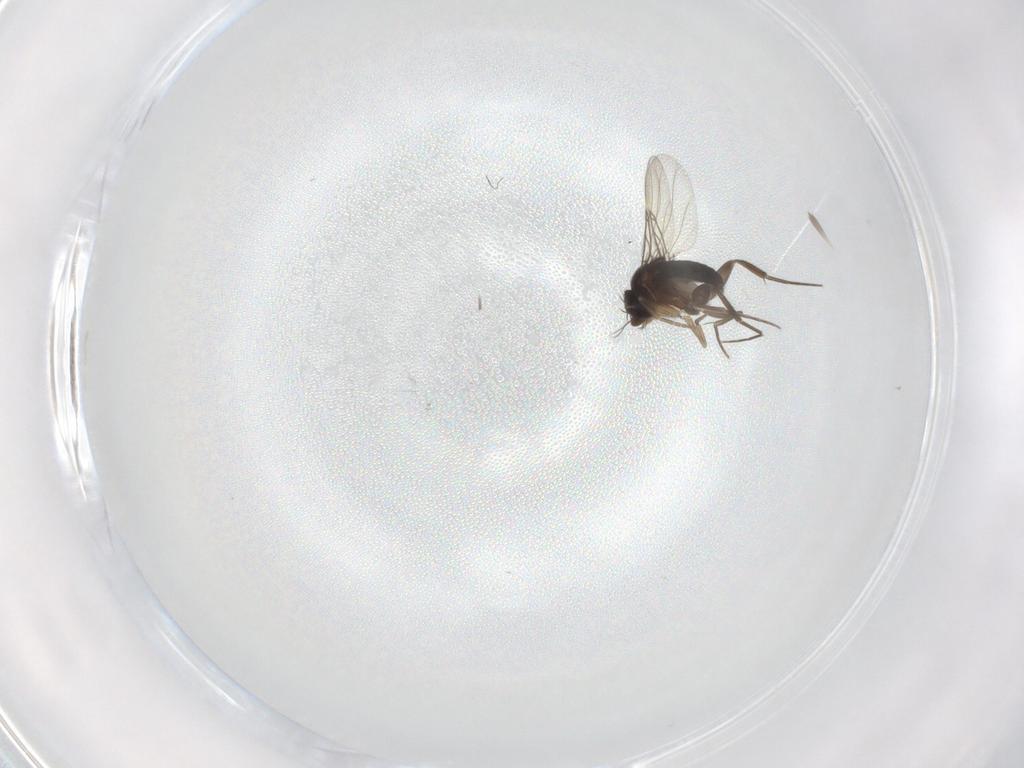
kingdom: Animalia
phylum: Arthropoda
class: Insecta
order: Diptera
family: Phoridae
